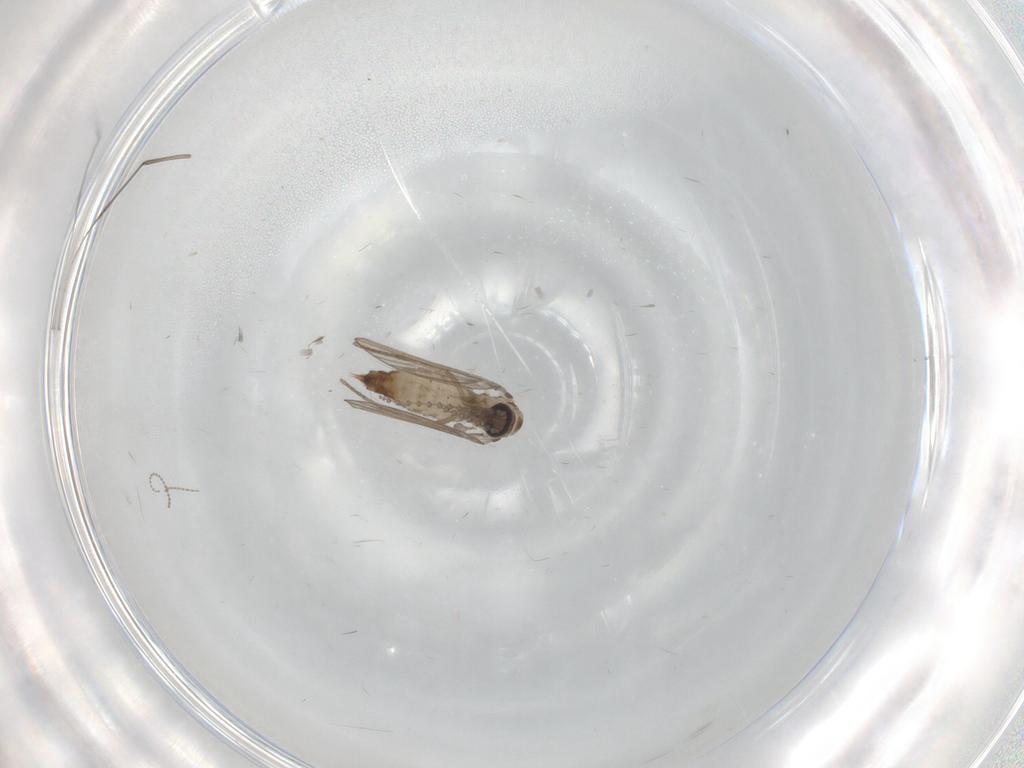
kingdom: Animalia
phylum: Arthropoda
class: Insecta
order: Diptera
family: Psychodidae
